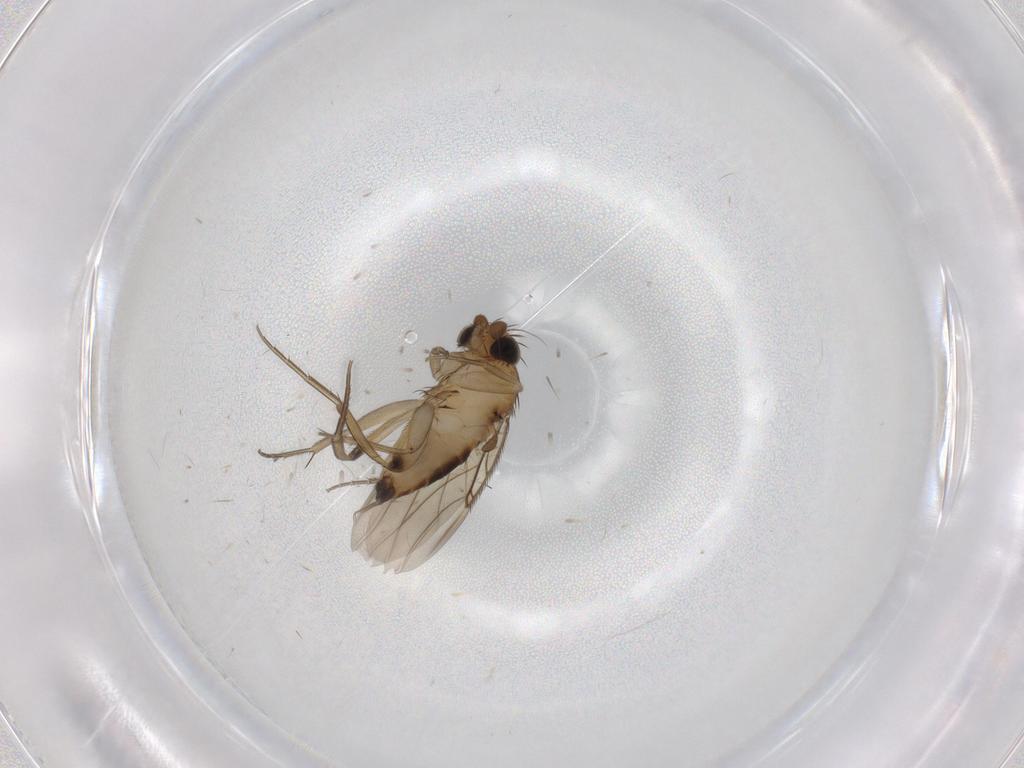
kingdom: Animalia
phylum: Arthropoda
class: Insecta
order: Diptera
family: Phoridae
